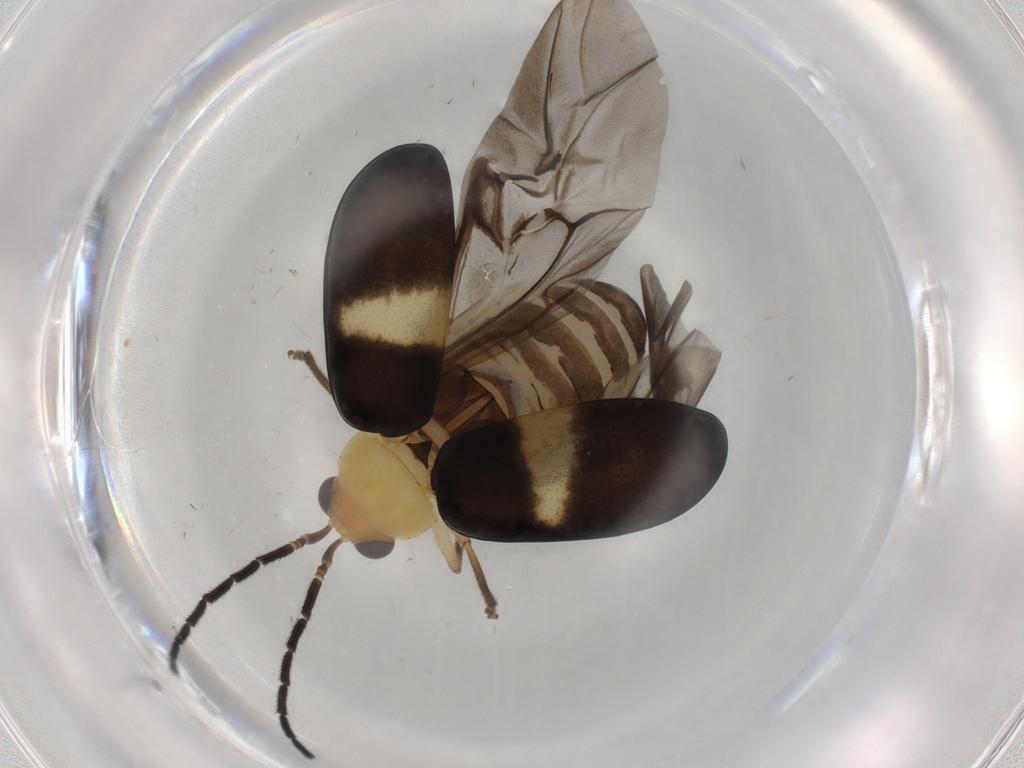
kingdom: Animalia
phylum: Arthropoda
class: Insecta
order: Coleoptera
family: Chrysomelidae
